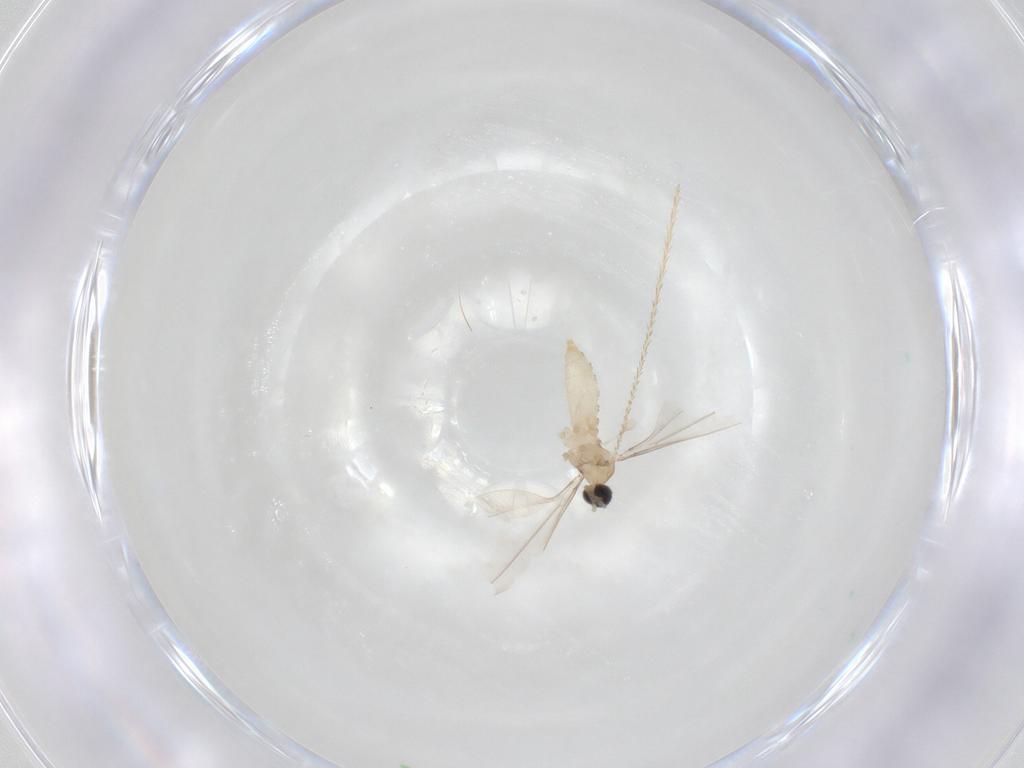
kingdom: Animalia
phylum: Arthropoda
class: Insecta
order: Diptera
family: Cecidomyiidae
